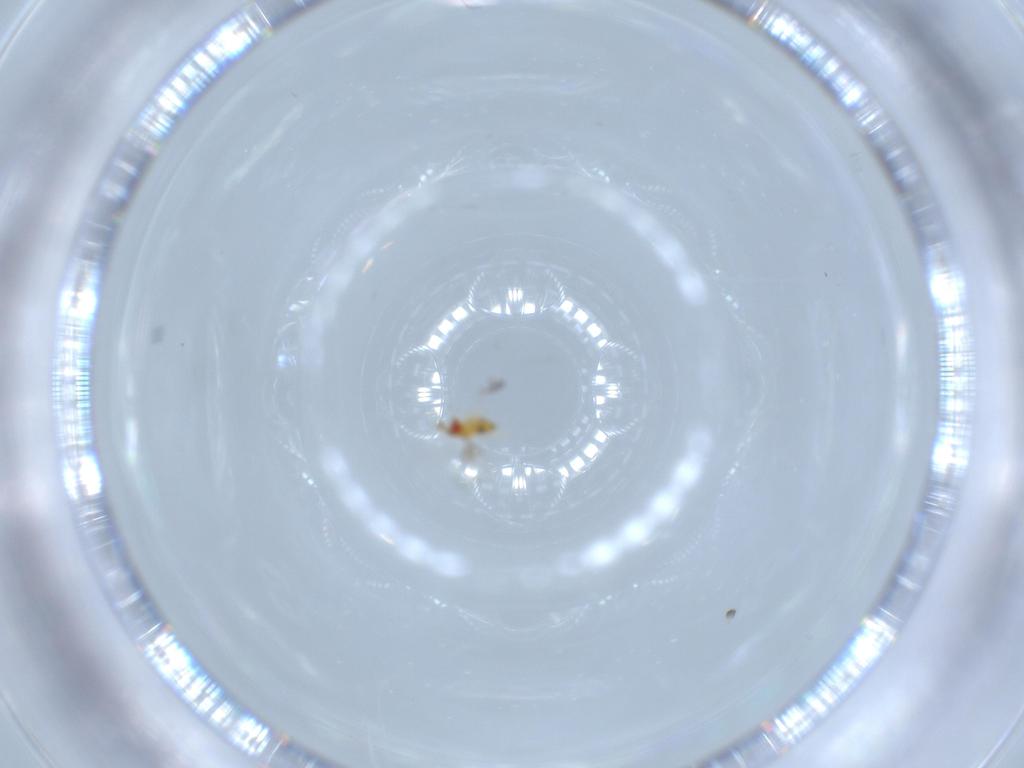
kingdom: Animalia
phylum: Arthropoda
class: Insecta
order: Hymenoptera
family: Trichogrammatidae
